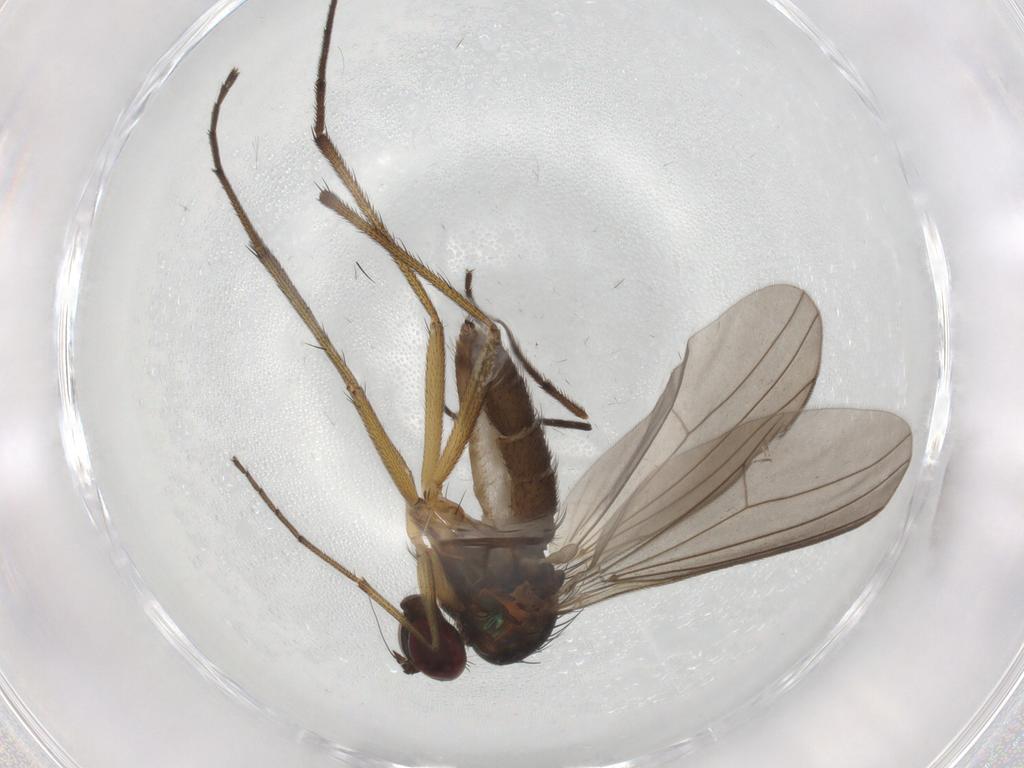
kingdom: Animalia
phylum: Arthropoda
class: Insecta
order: Diptera
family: Dolichopodidae
